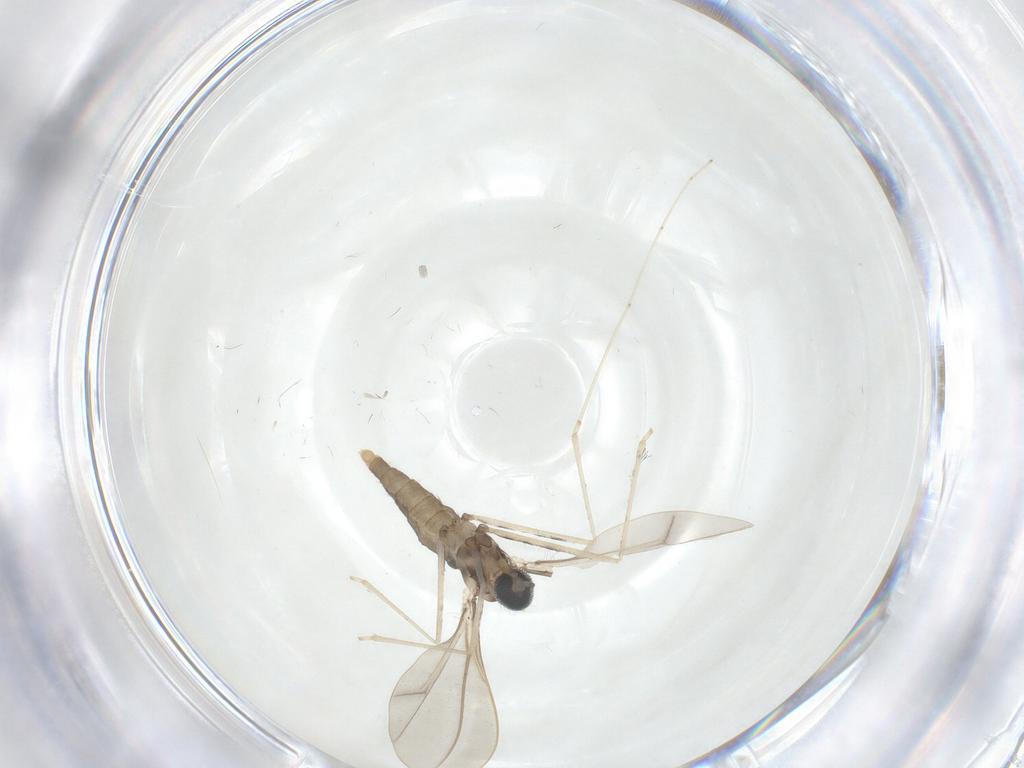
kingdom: Animalia
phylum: Arthropoda
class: Insecta
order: Diptera
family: Cecidomyiidae
